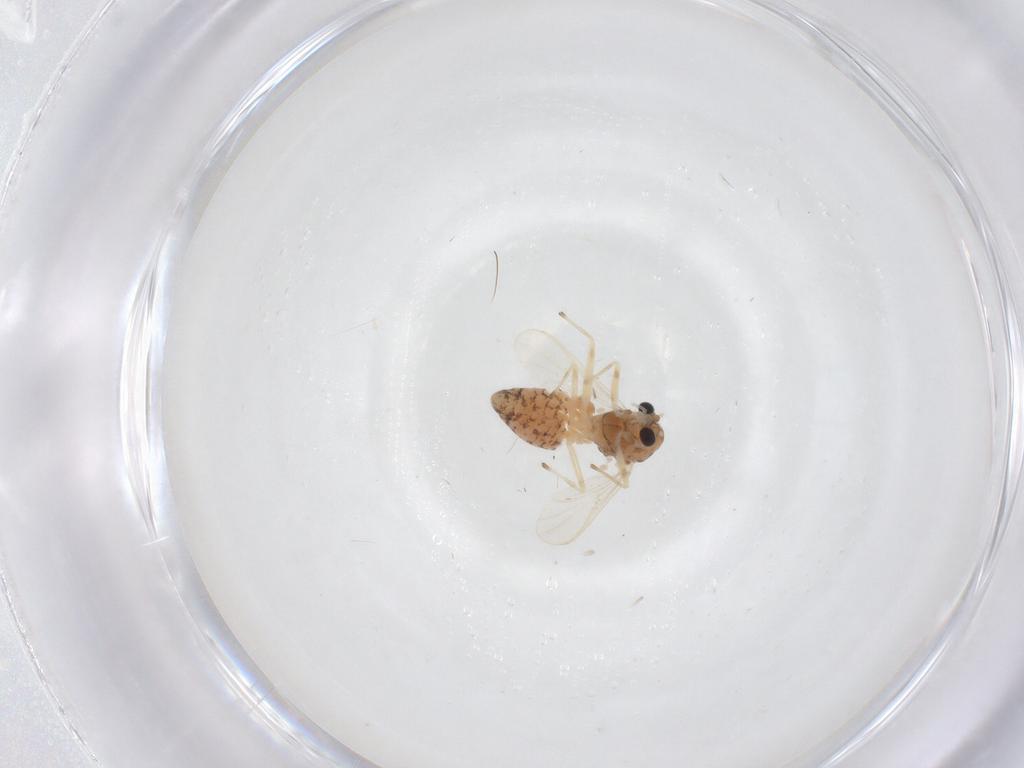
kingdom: Animalia
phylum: Arthropoda
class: Insecta
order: Diptera
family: Chironomidae
